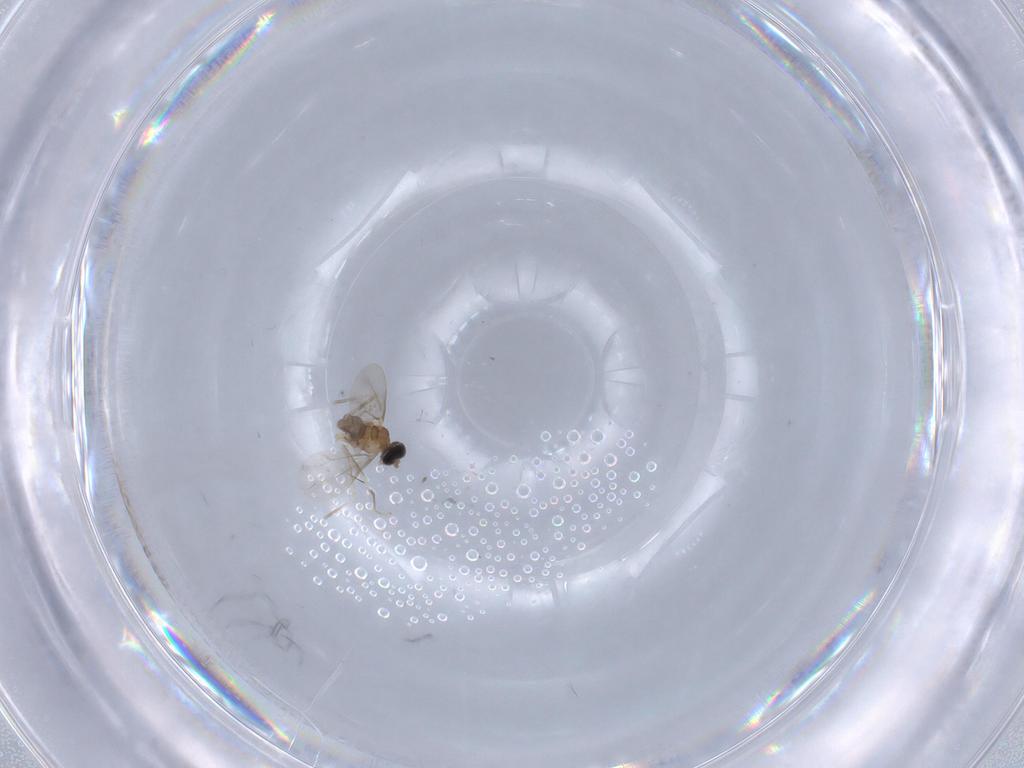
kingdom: Animalia
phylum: Arthropoda
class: Insecta
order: Diptera
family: Cecidomyiidae
